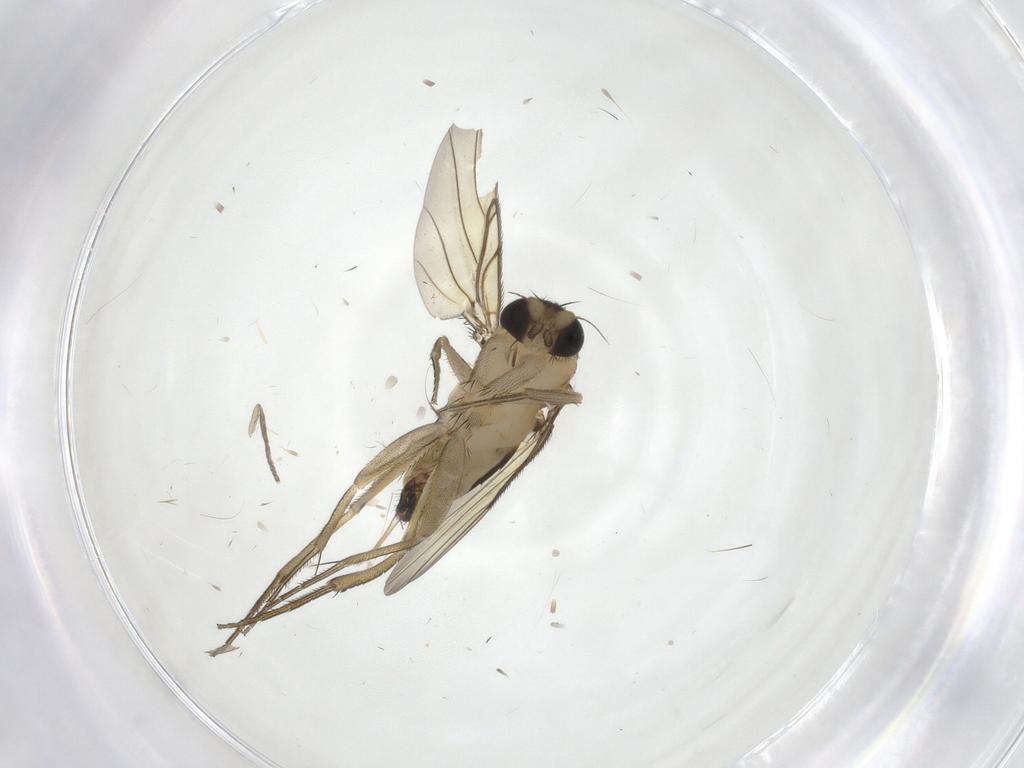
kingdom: Animalia
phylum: Arthropoda
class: Insecta
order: Diptera
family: Phoridae
